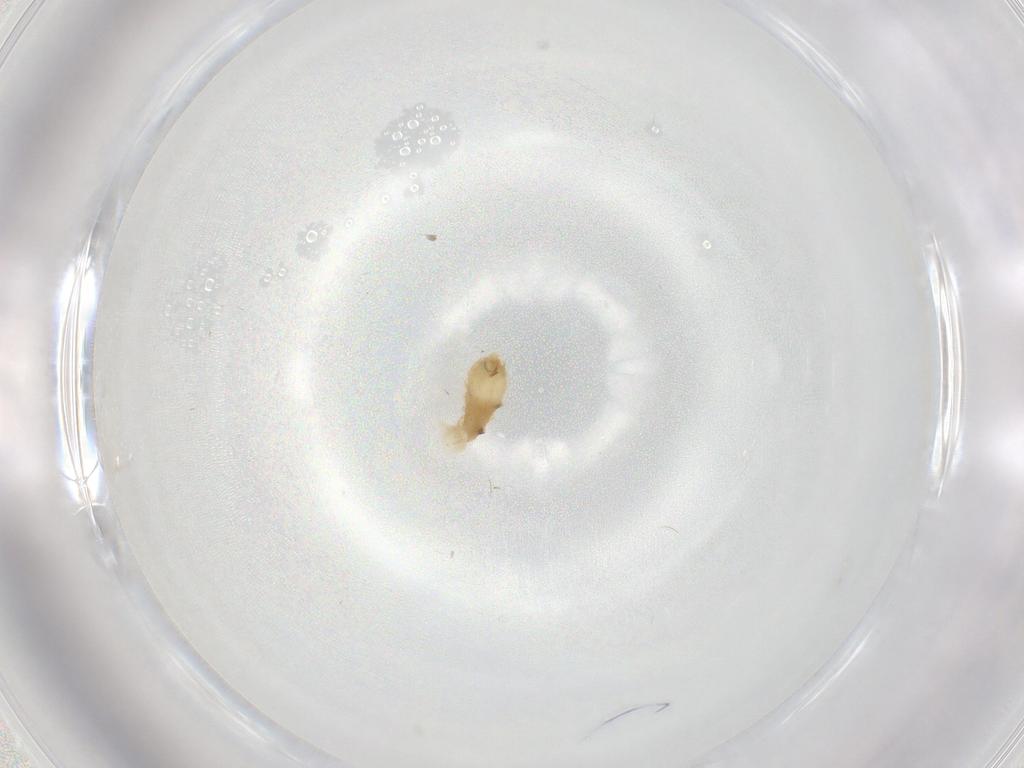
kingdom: Animalia
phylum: Arthropoda
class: Insecta
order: Diptera
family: Chironomidae
